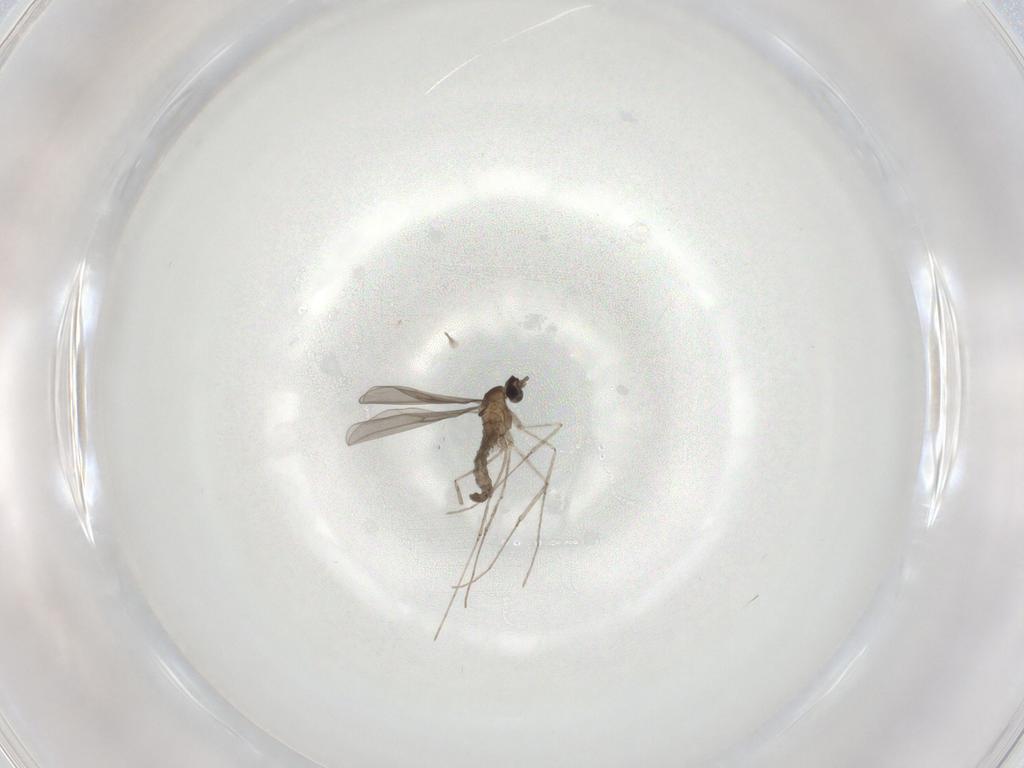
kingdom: Animalia
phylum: Arthropoda
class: Insecta
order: Diptera
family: Cecidomyiidae
